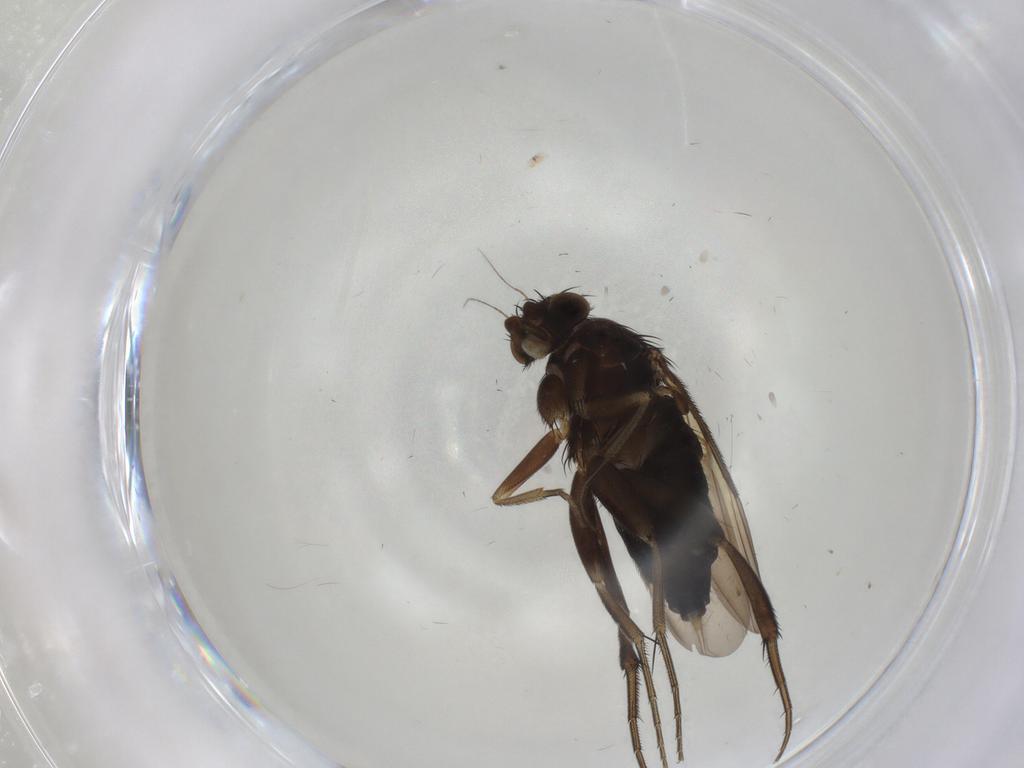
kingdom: Animalia
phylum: Arthropoda
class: Insecta
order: Diptera
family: Phoridae
